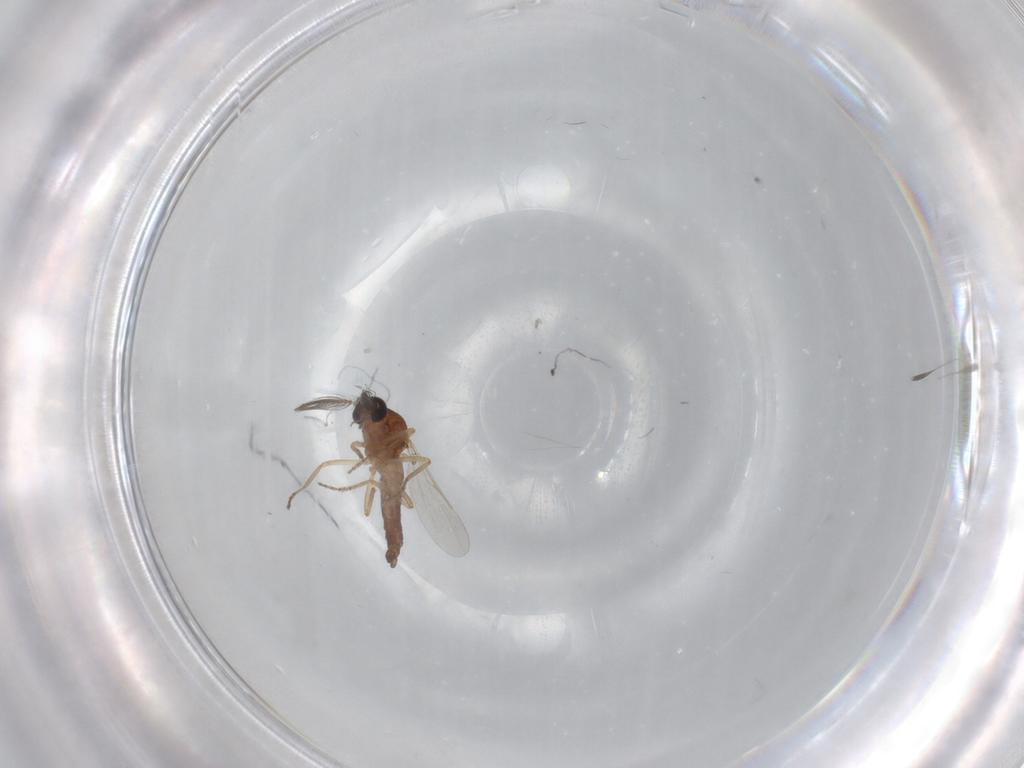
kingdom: Animalia
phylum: Arthropoda
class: Insecta
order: Diptera
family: Ceratopogonidae
